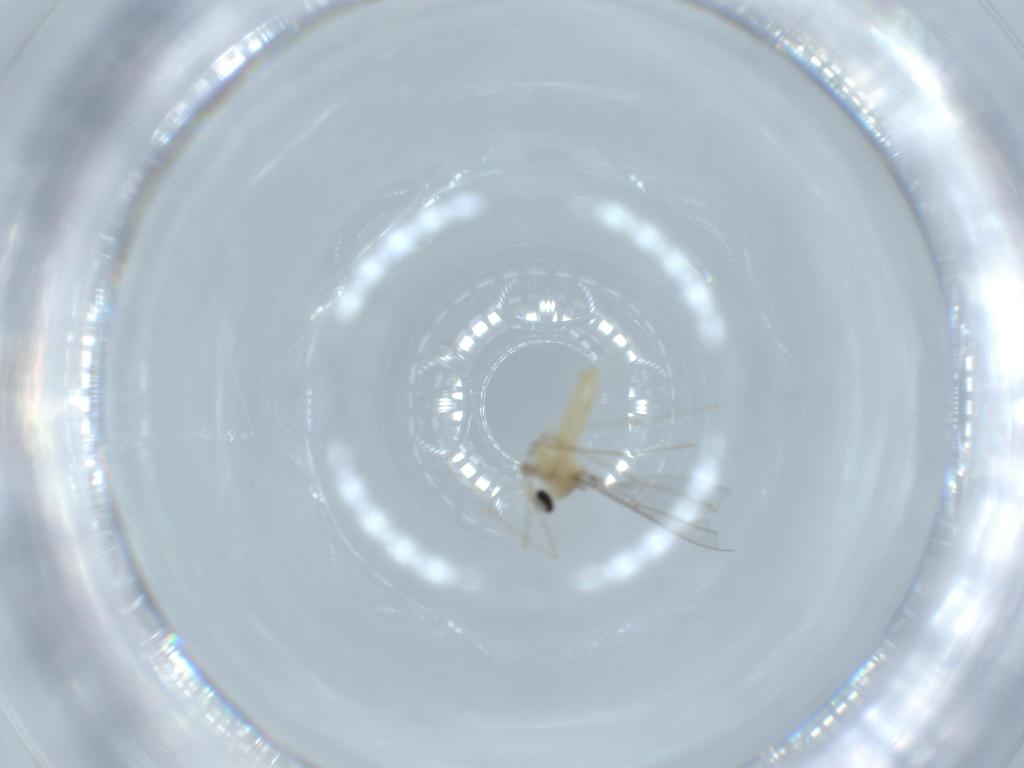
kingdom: Animalia
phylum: Arthropoda
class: Insecta
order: Diptera
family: Cecidomyiidae
